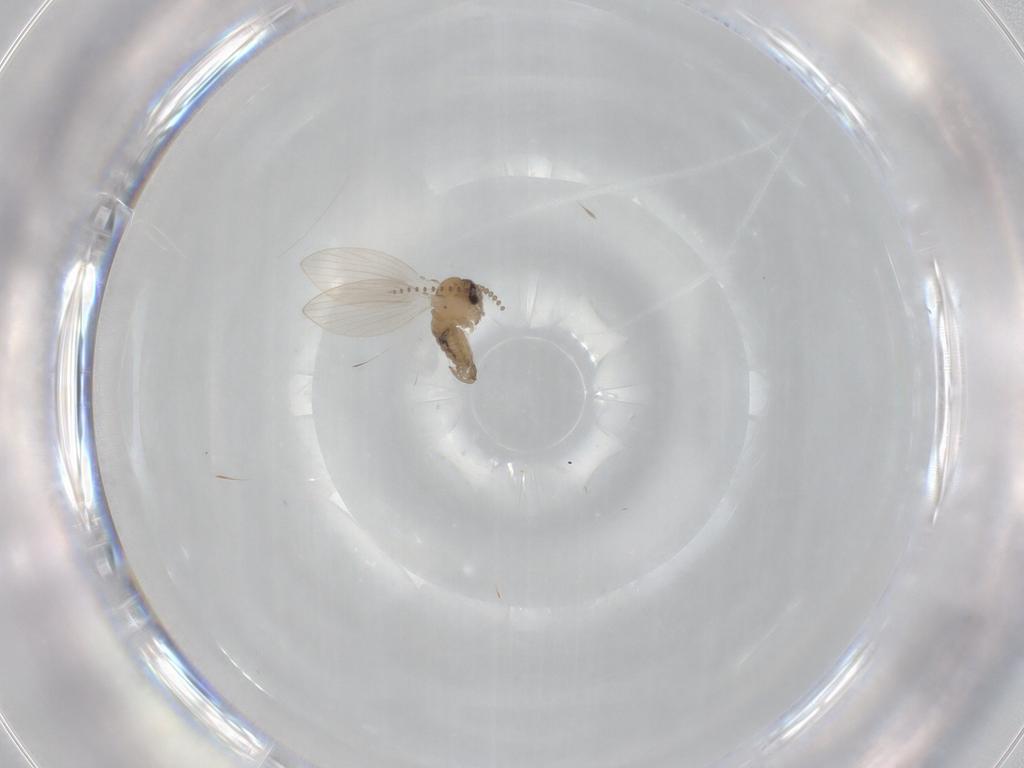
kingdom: Animalia
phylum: Arthropoda
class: Insecta
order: Diptera
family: Psychodidae
